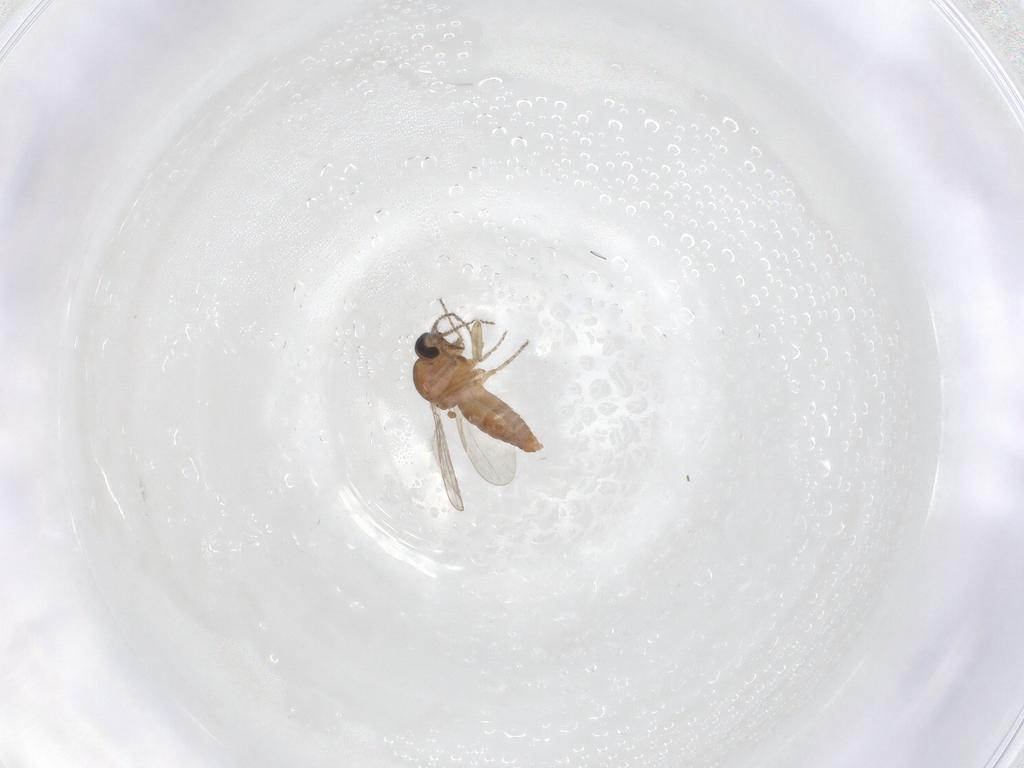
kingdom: Animalia
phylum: Arthropoda
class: Insecta
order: Diptera
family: Ceratopogonidae
